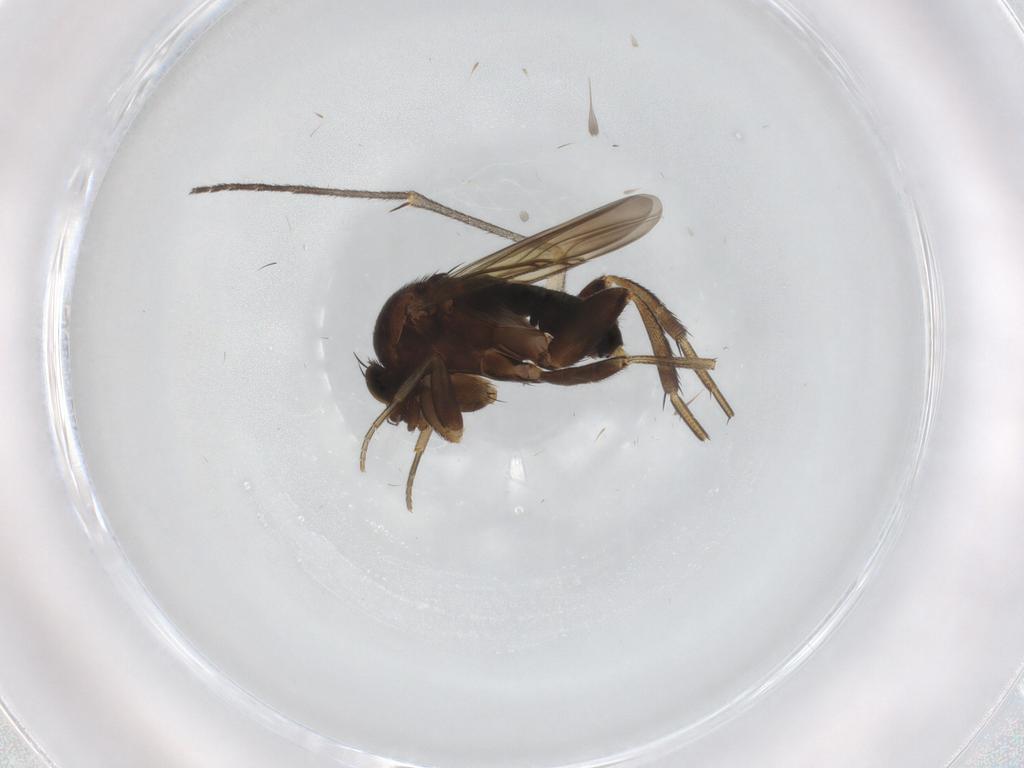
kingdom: Animalia
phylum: Arthropoda
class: Insecta
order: Diptera
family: Phoridae
